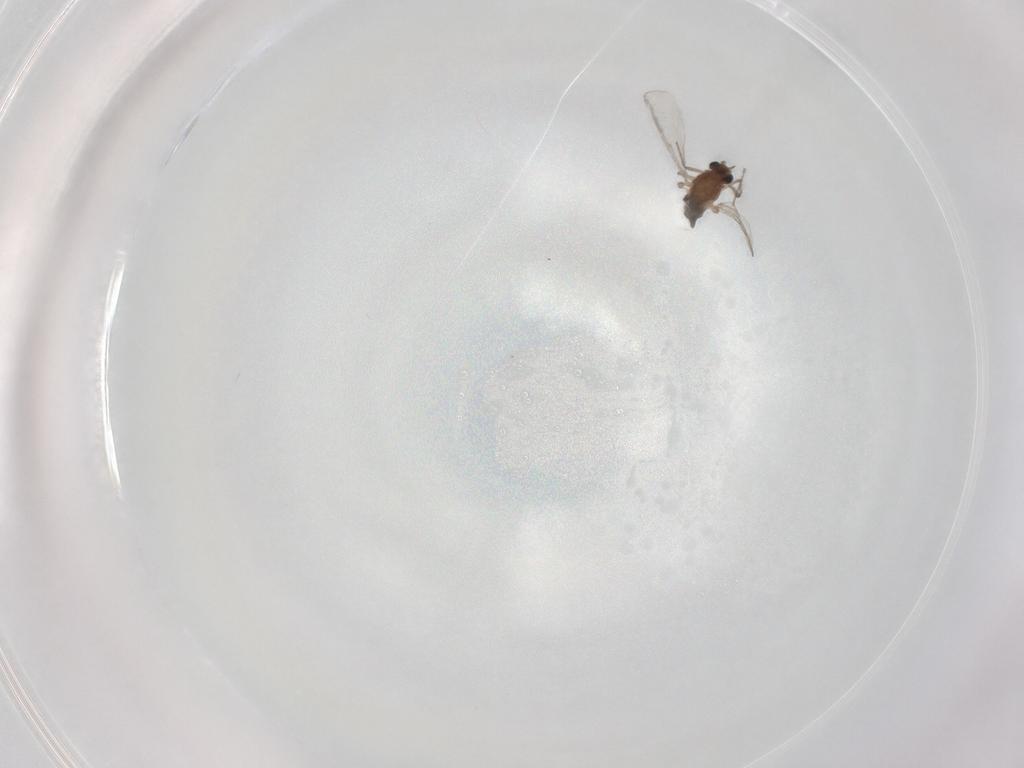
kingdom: Animalia
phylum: Arthropoda
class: Insecta
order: Diptera
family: Chironomidae
